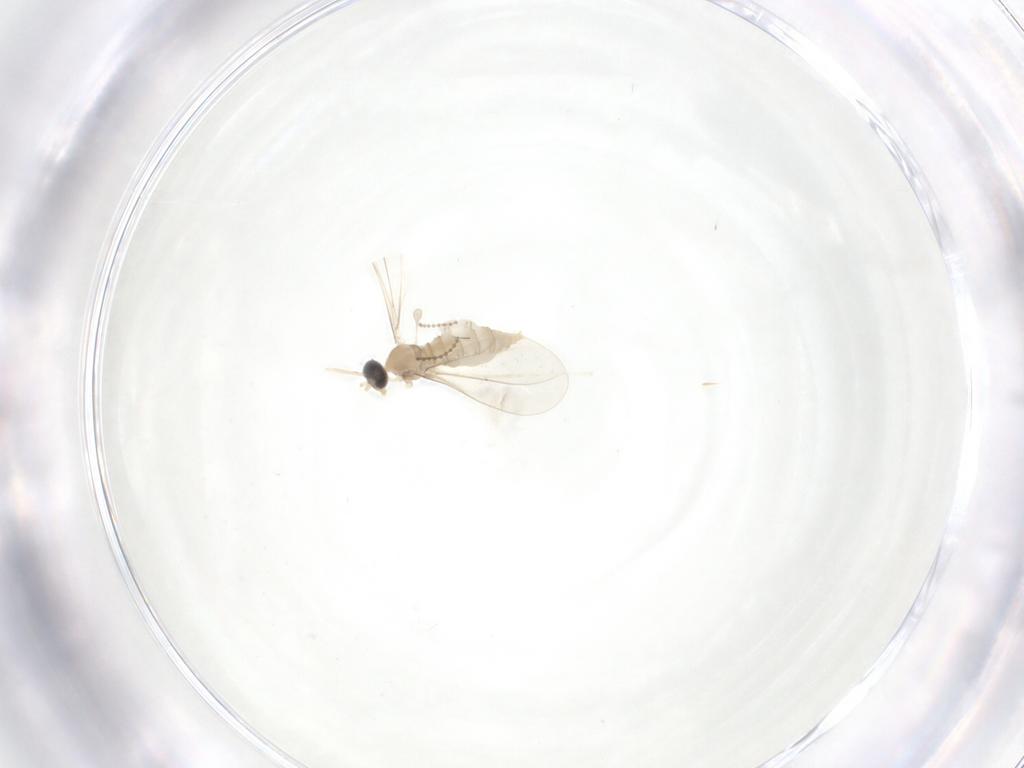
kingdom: Animalia
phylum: Arthropoda
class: Insecta
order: Diptera
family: Cecidomyiidae
